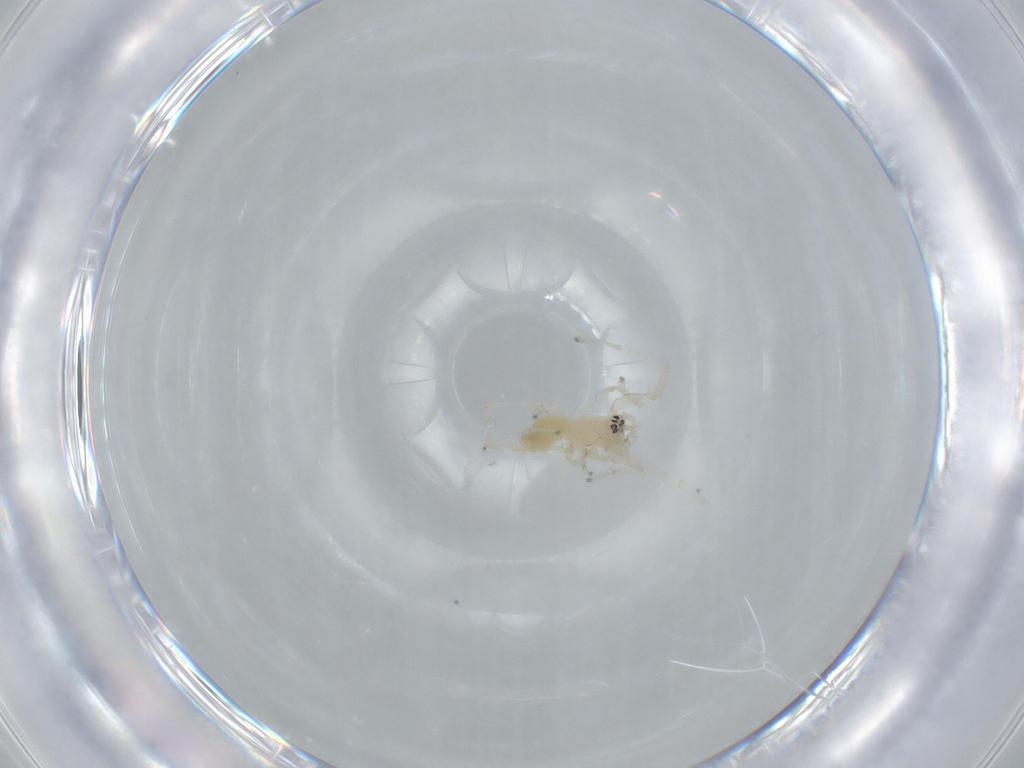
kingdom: Animalia
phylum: Arthropoda
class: Arachnida
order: Araneae
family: Anyphaenidae
